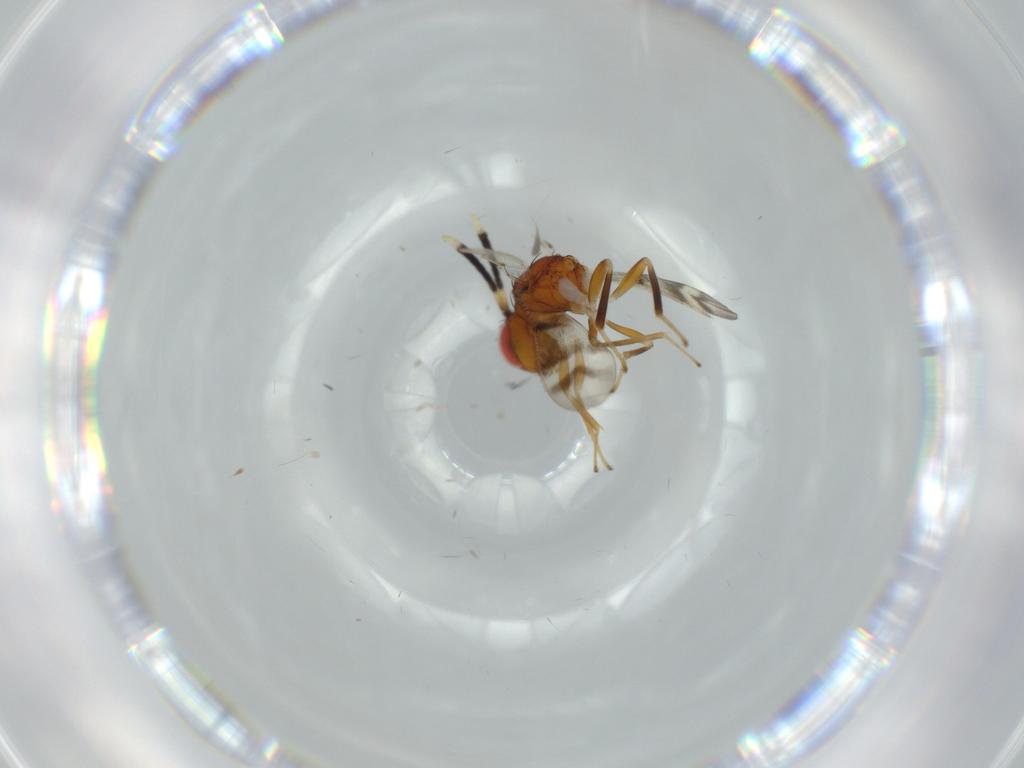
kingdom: Animalia
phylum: Arthropoda
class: Insecta
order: Hymenoptera
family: Figitidae
